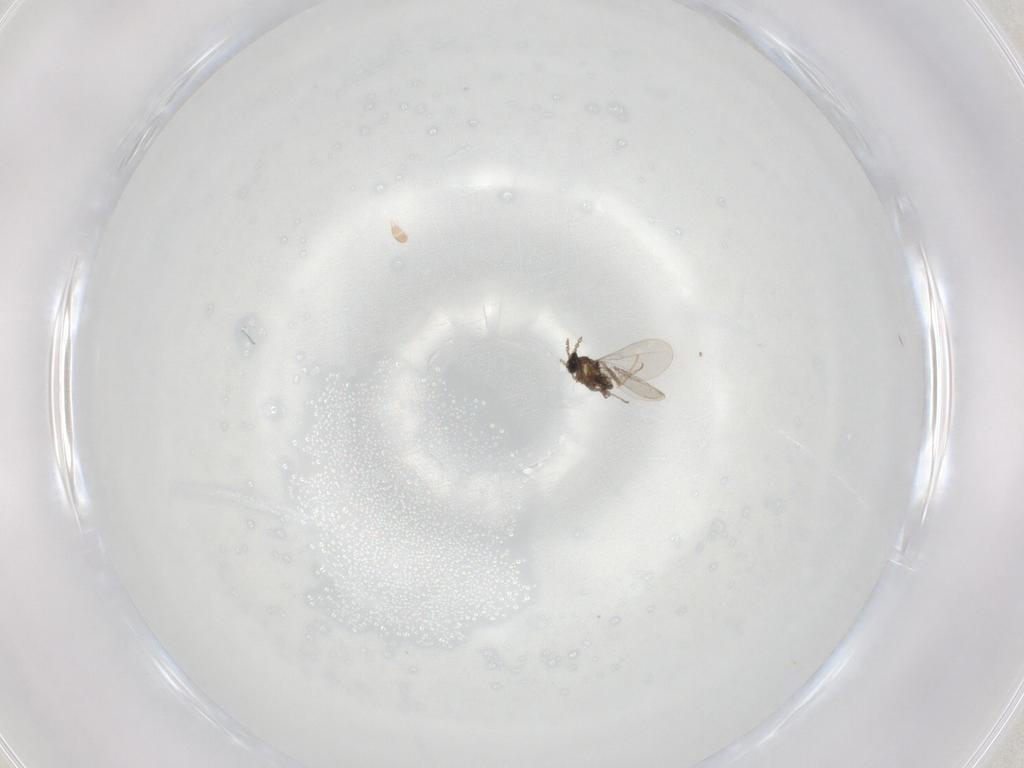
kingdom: Animalia
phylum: Arthropoda
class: Insecta
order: Diptera
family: Cecidomyiidae
